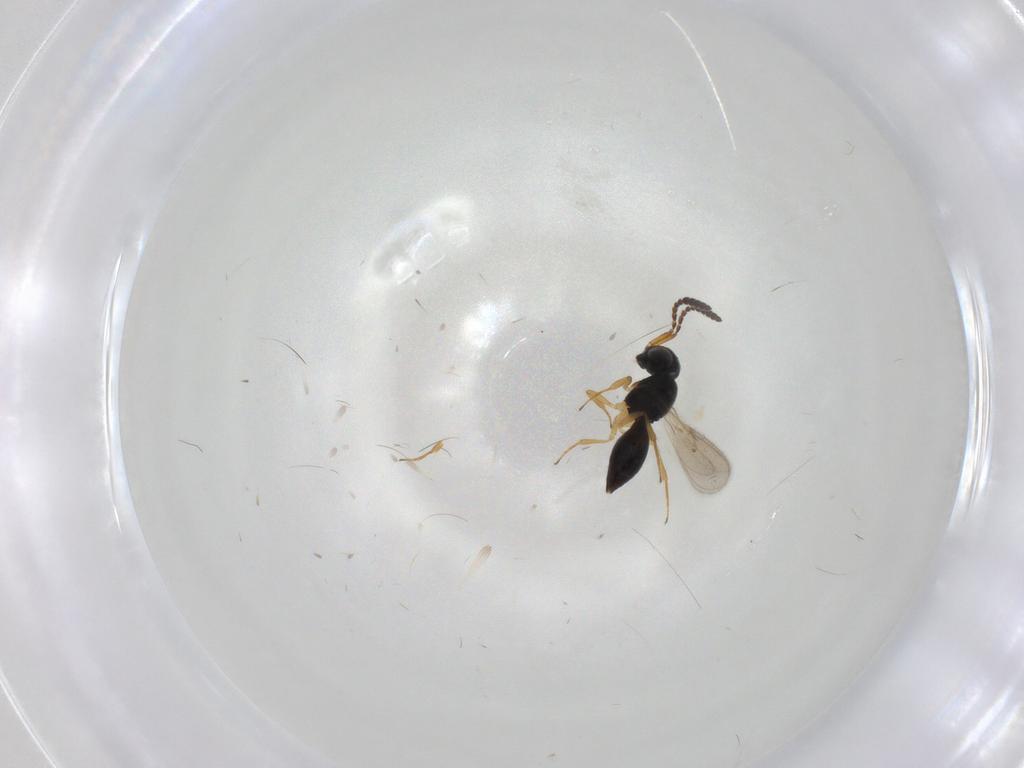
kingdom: Animalia
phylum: Arthropoda
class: Insecta
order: Hymenoptera
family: Scelionidae
